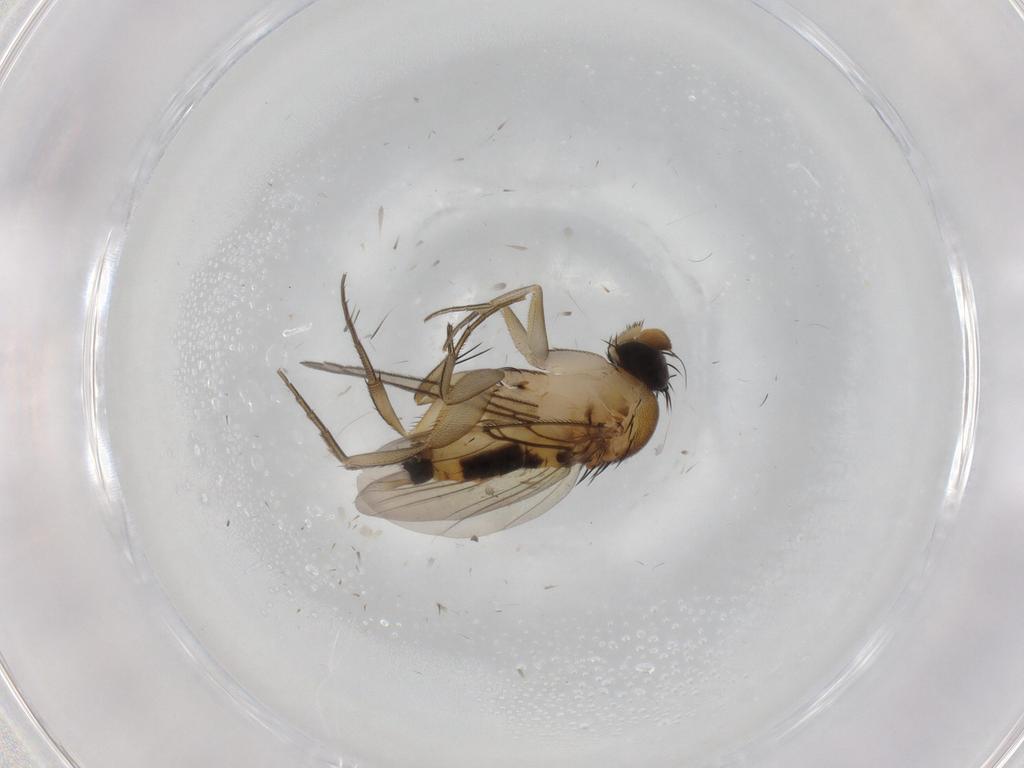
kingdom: Animalia
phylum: Arthropoda
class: Insecta
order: Diptera
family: Phoridae
